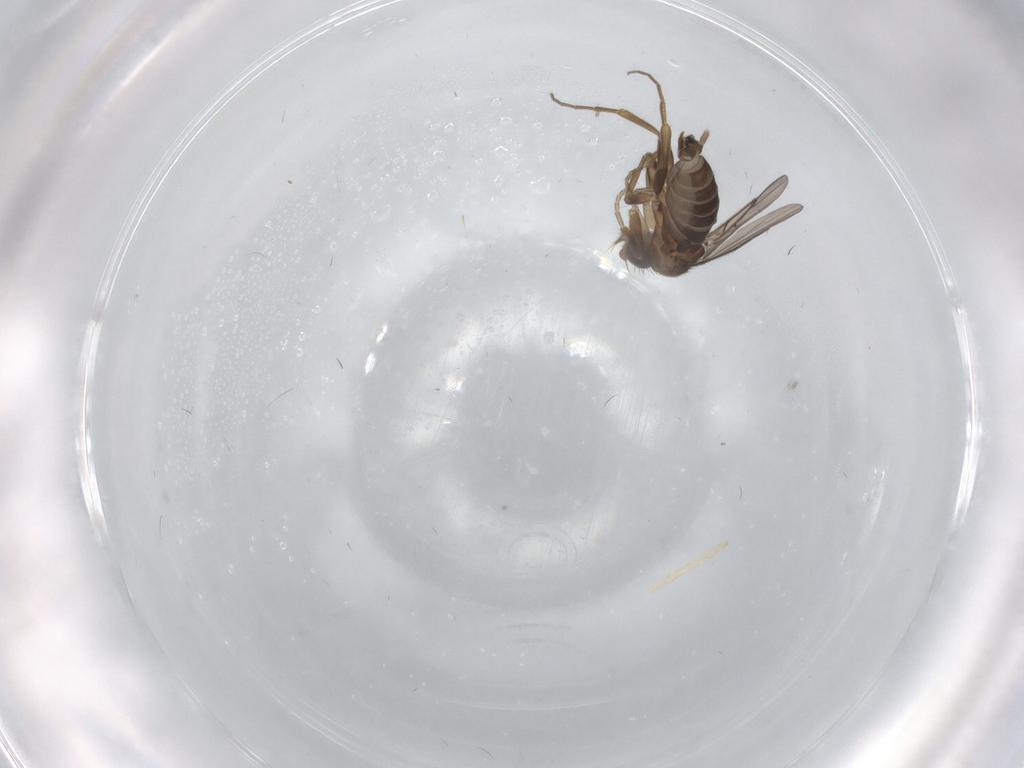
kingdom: Animalia
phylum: Arthropoda
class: Insecta
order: Diptera
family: Phoridae
